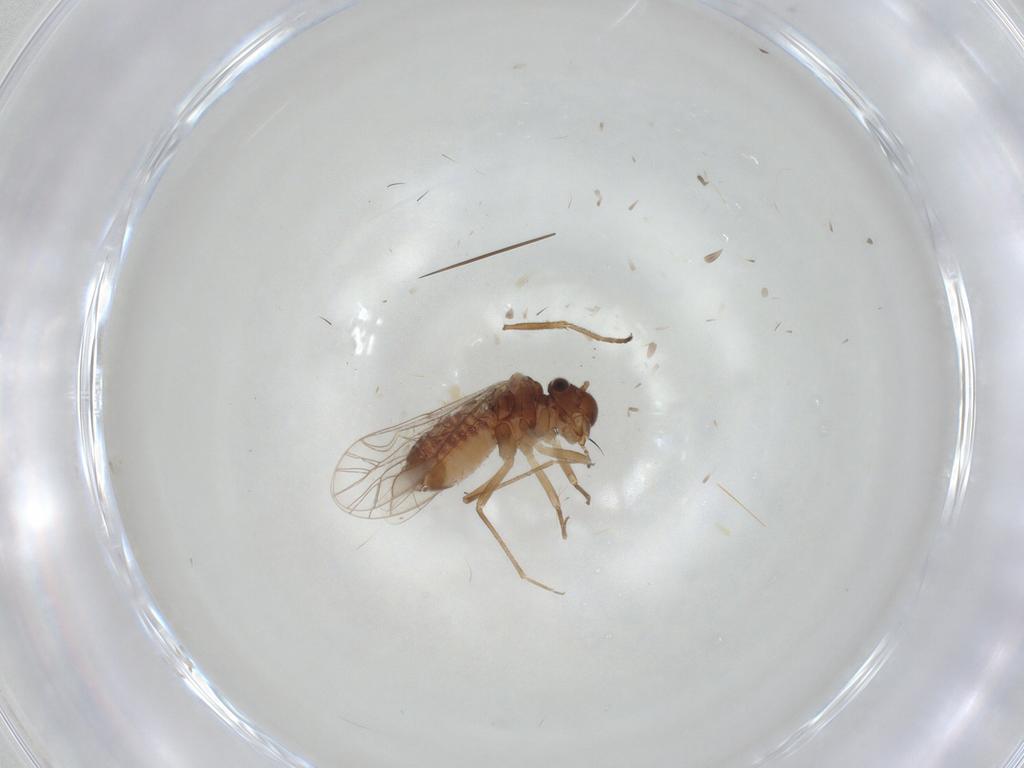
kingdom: Animalia
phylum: Arthropoda
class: Insecta
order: Psocodea
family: Lachesillidae
